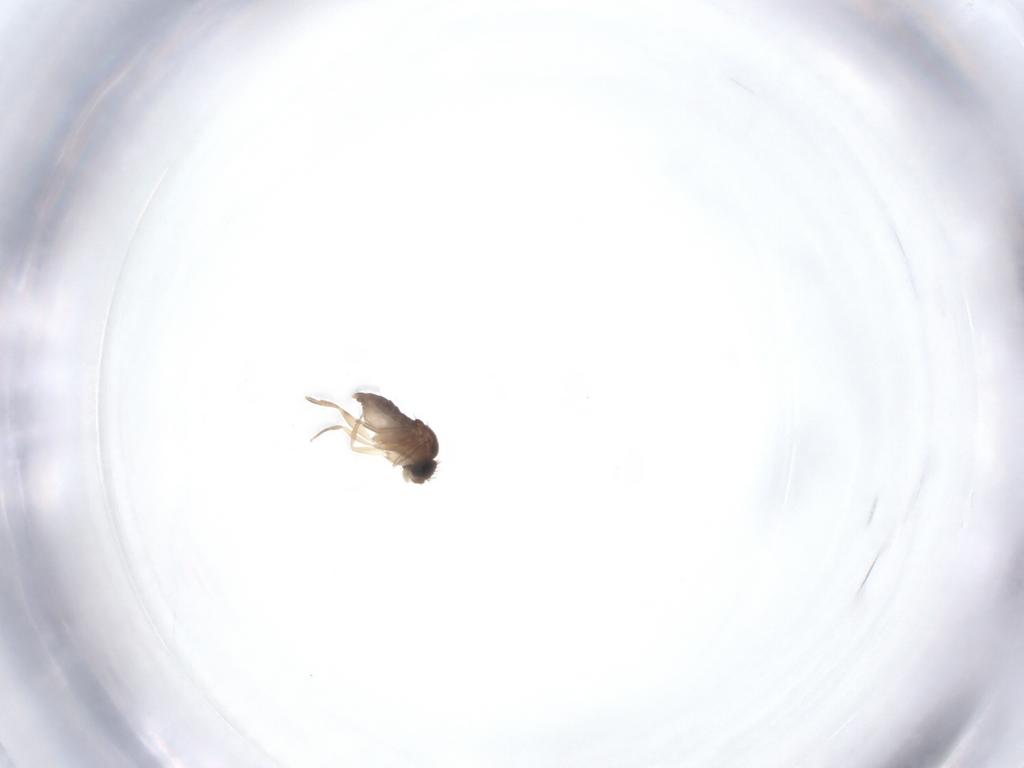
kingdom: Animalia
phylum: Arthropoda
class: Insecta
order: Diptera
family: Phoridae
